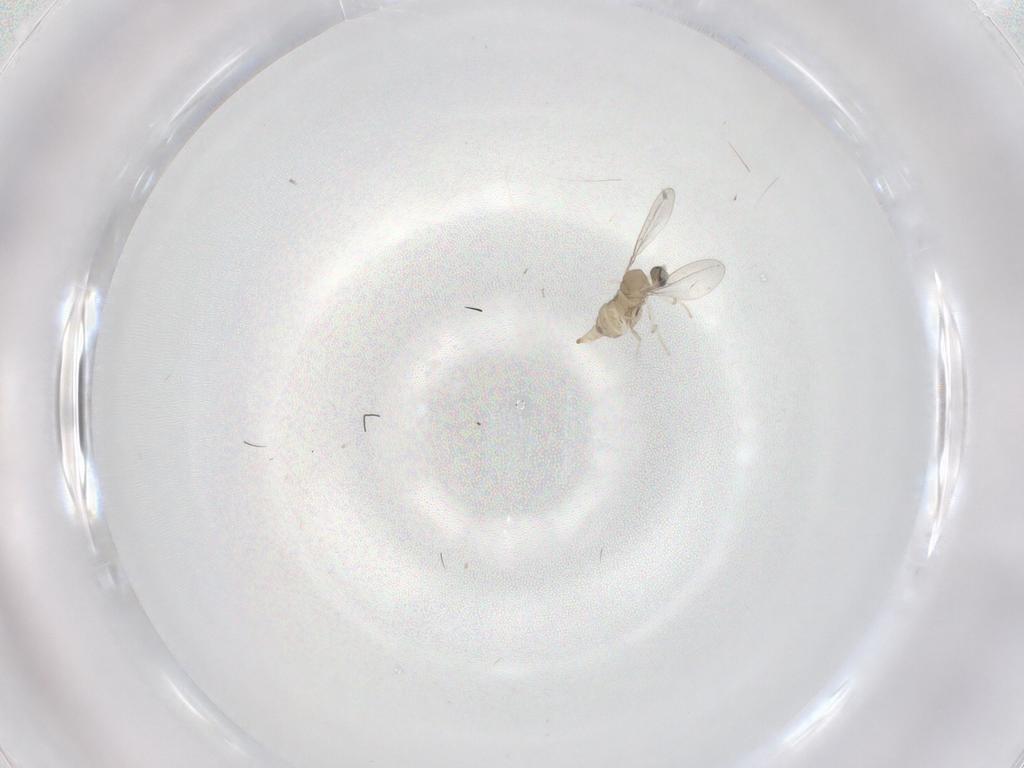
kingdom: Animalia
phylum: Arthropoda
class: Insecta
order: Diptera
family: Cecidomyiidae
